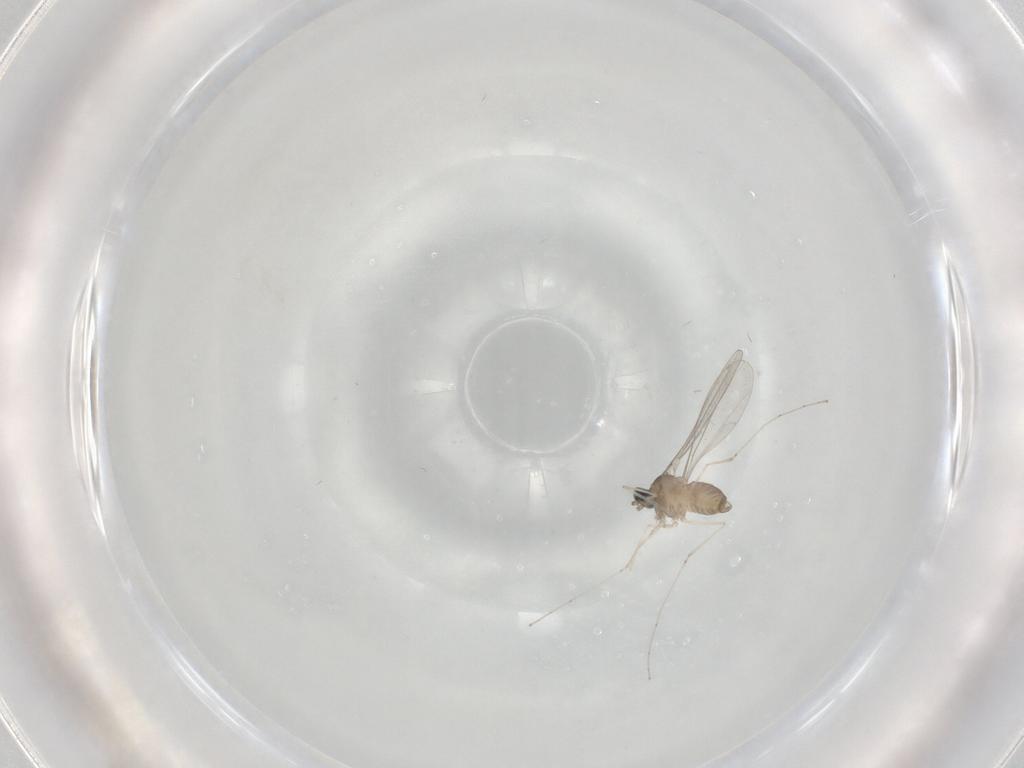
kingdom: Animalia
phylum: Arthropoda
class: Insecta
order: Diptera
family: Cecidomyiidae
